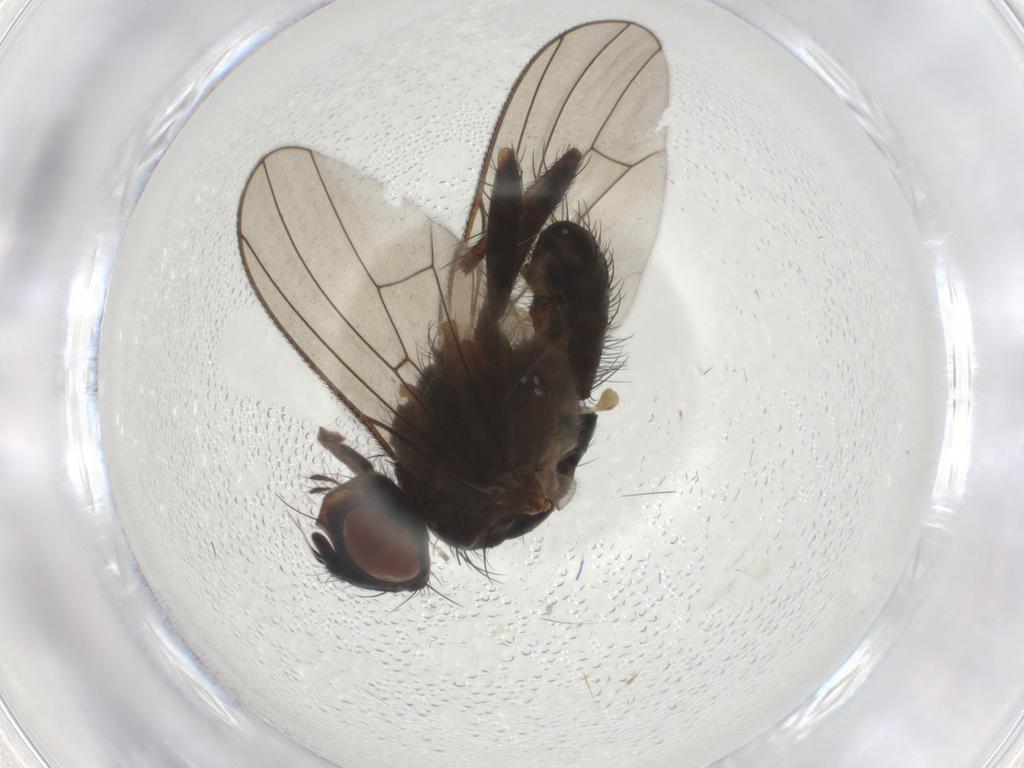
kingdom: Animalia
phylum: Arthropoda
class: Insecta
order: Diptera
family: Anthomyiidae
